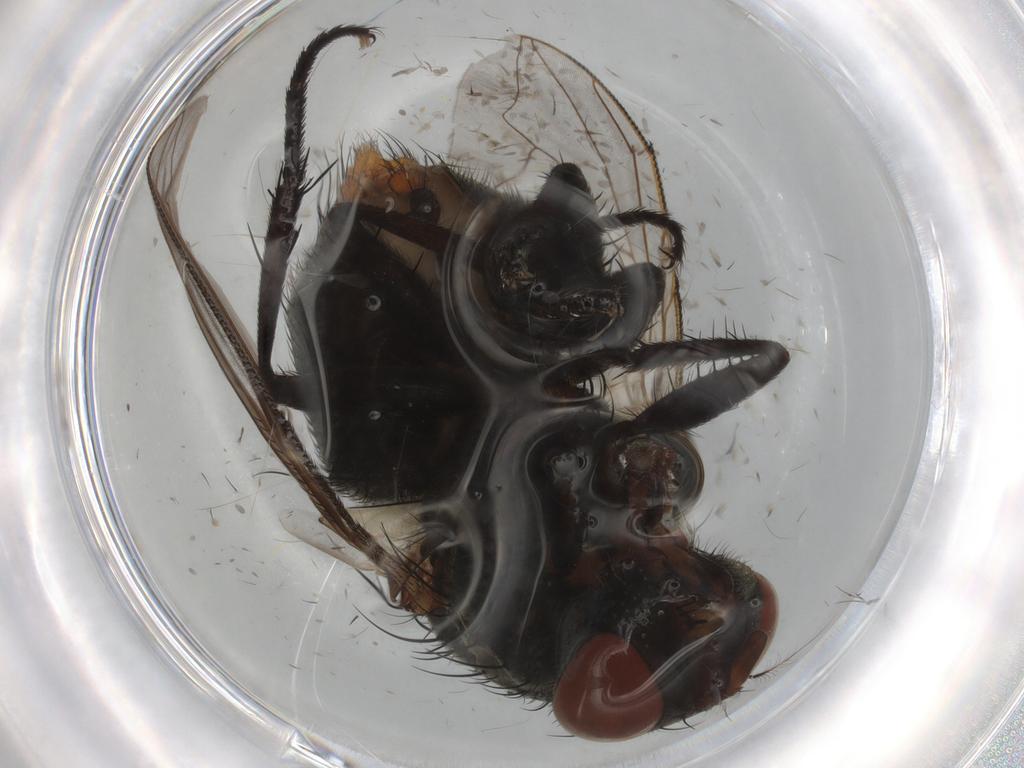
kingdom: Animalia
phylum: Arthropoda
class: Insecta
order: Diptera
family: Ceratopogonidae
